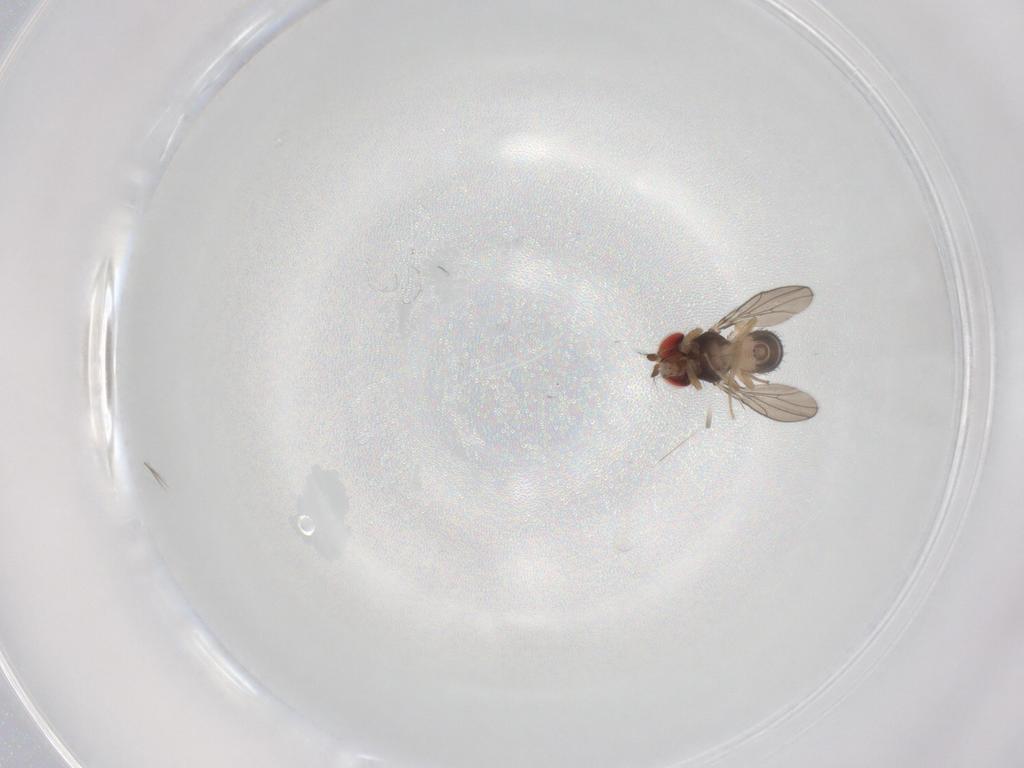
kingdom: Animalia
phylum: Arthropoda
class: Insecta
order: Diptera
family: Drosophilidae
